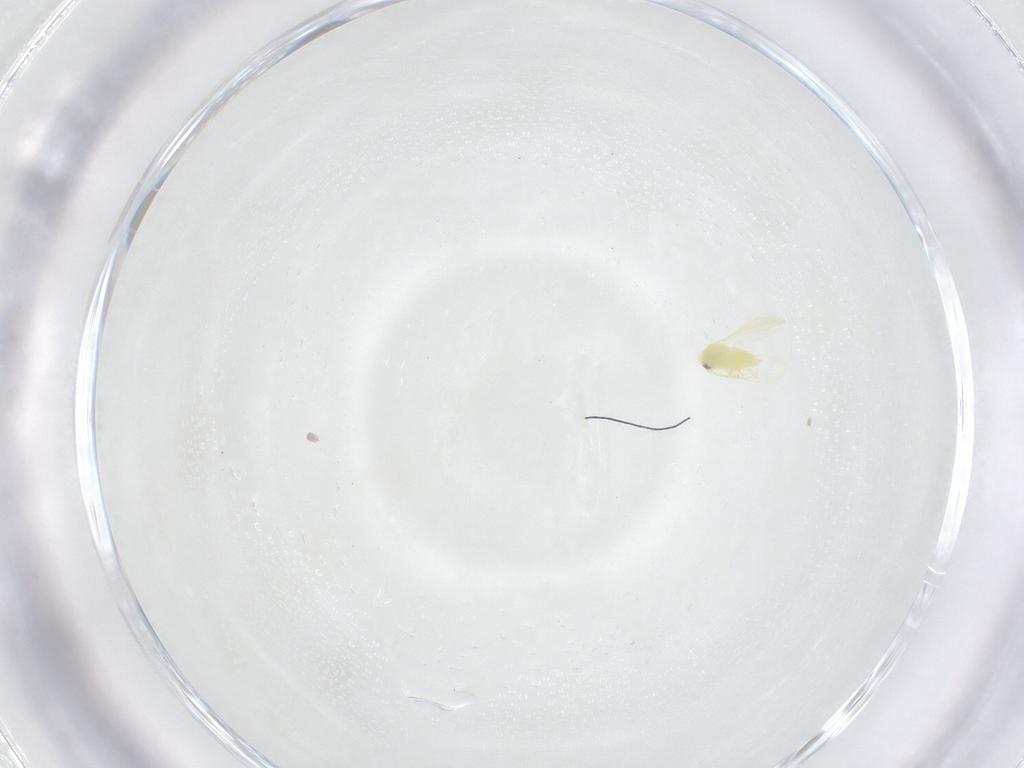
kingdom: Animalia
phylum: Arthropoda
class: Insecta
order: Hemiptera
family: Aleyrodidae
